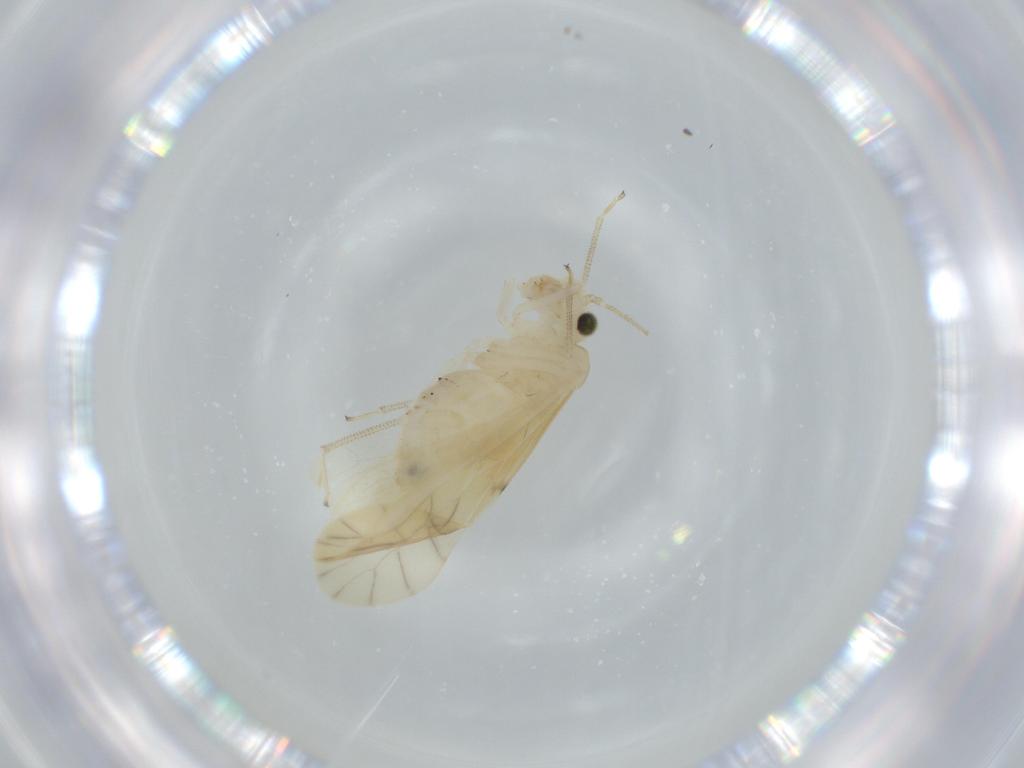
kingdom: Animalia
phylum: Arthropoda
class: Insecta
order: Psocodea
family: Caeciliusidae
